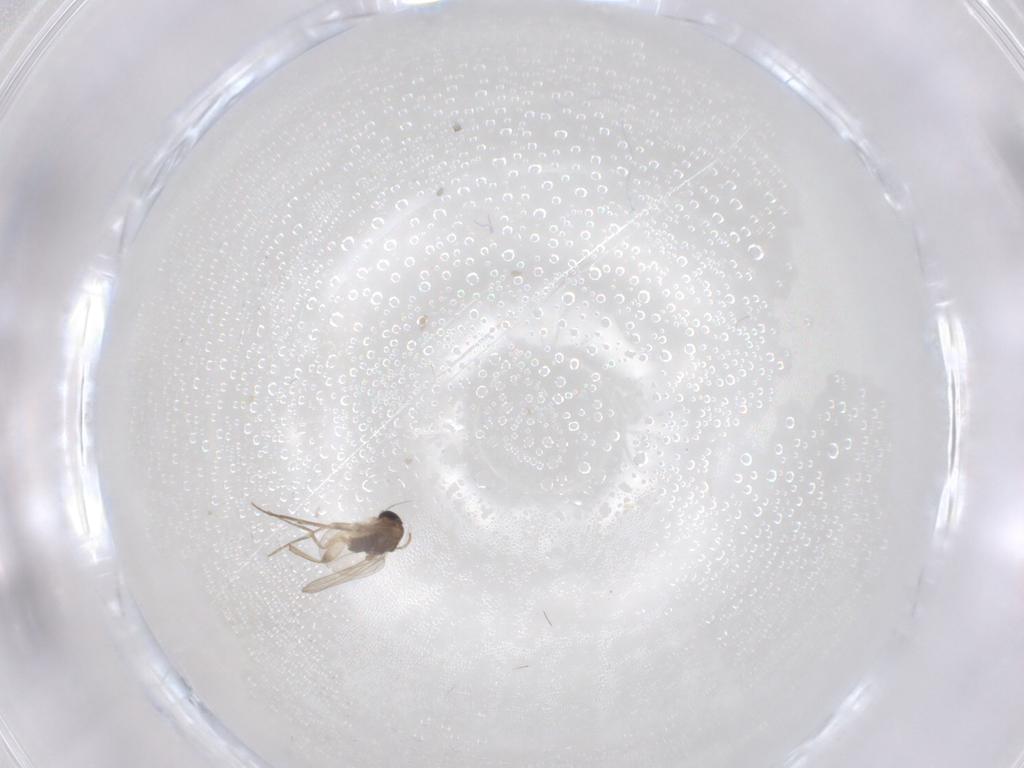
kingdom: Animalia
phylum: Arthropoda
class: Insecta
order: Diptera
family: Phoridae
